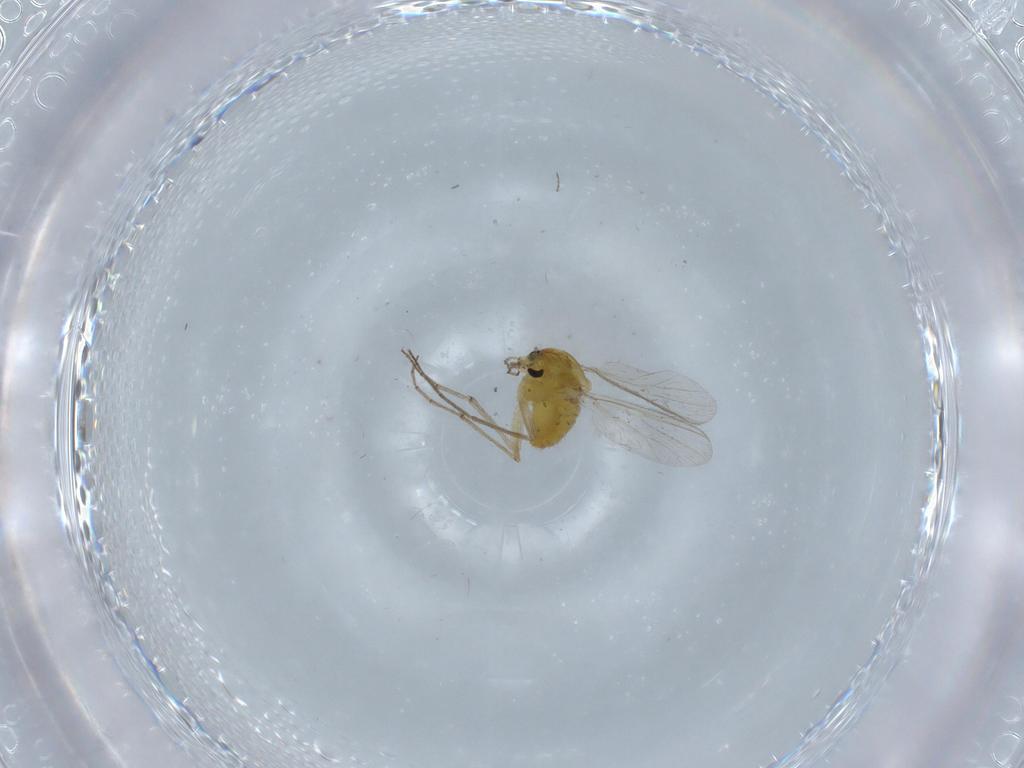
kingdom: Animalia
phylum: Arthropoda
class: Insecta
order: Diptera
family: Chironomidae
